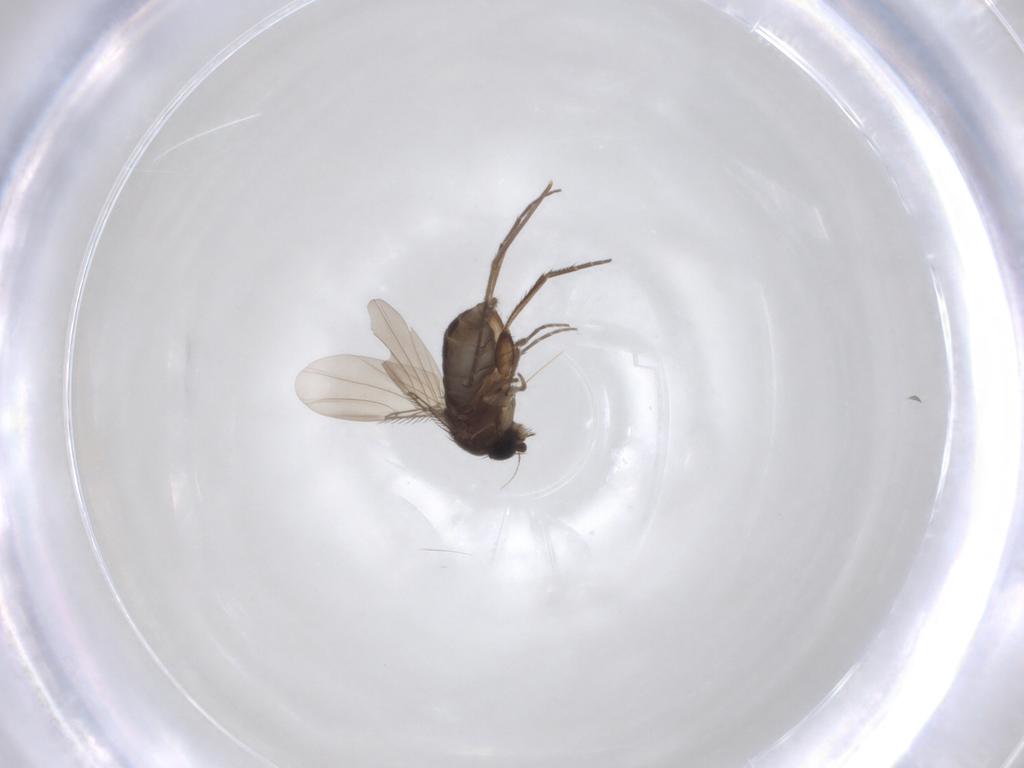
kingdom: Animalia
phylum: Arthropoda
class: Insecta
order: Diptera
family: Phoridae
